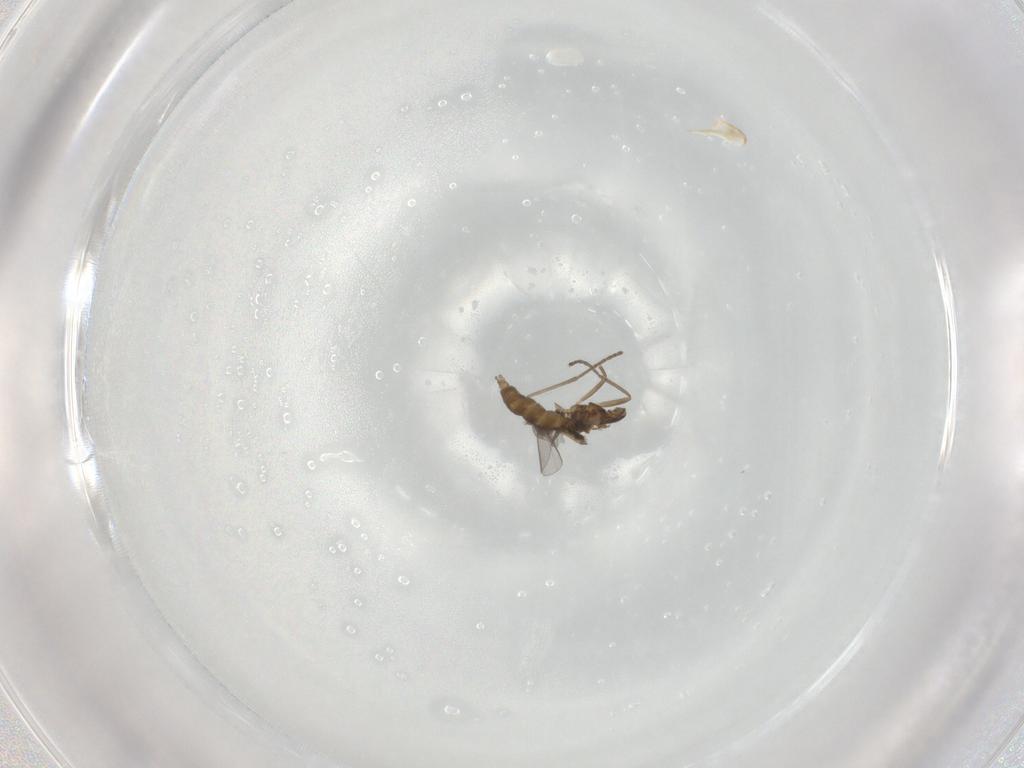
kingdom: Animalia
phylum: Arthropoda
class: Insecta
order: Diptera
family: Cecidomyiidae
